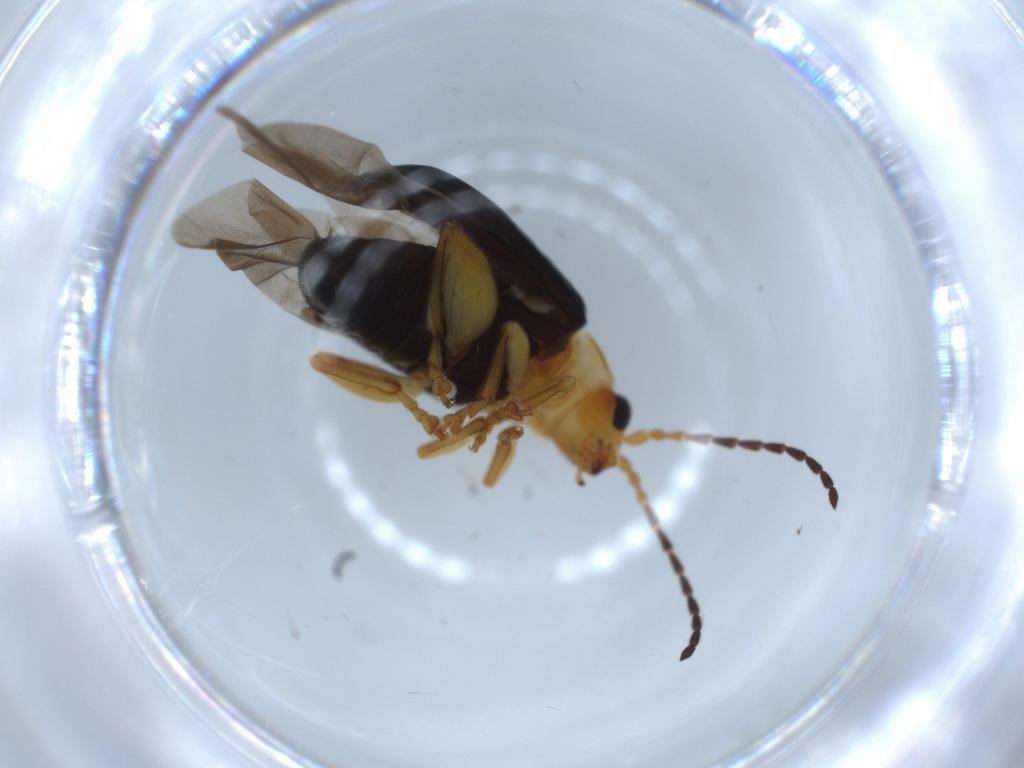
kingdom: Animalia
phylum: Arthropoda
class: Insecta
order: Coleoptera
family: Chrysomelidae
